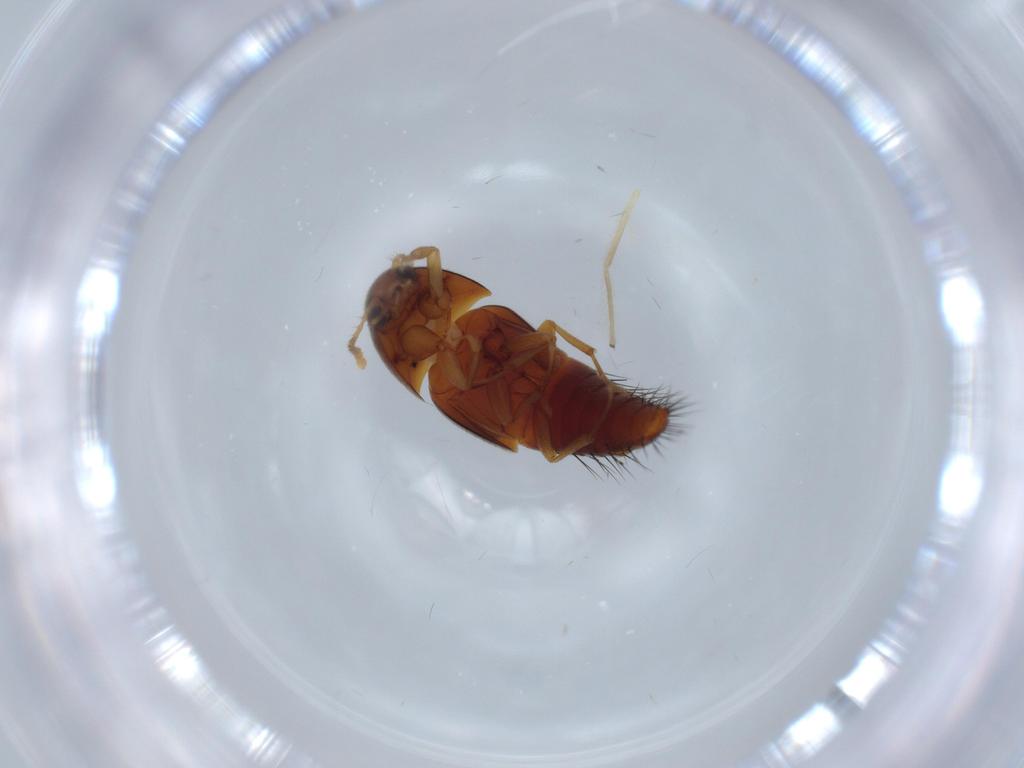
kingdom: Animalia
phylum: Arthropoda
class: Insecta
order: Coleoptera
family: Staphylinidae
